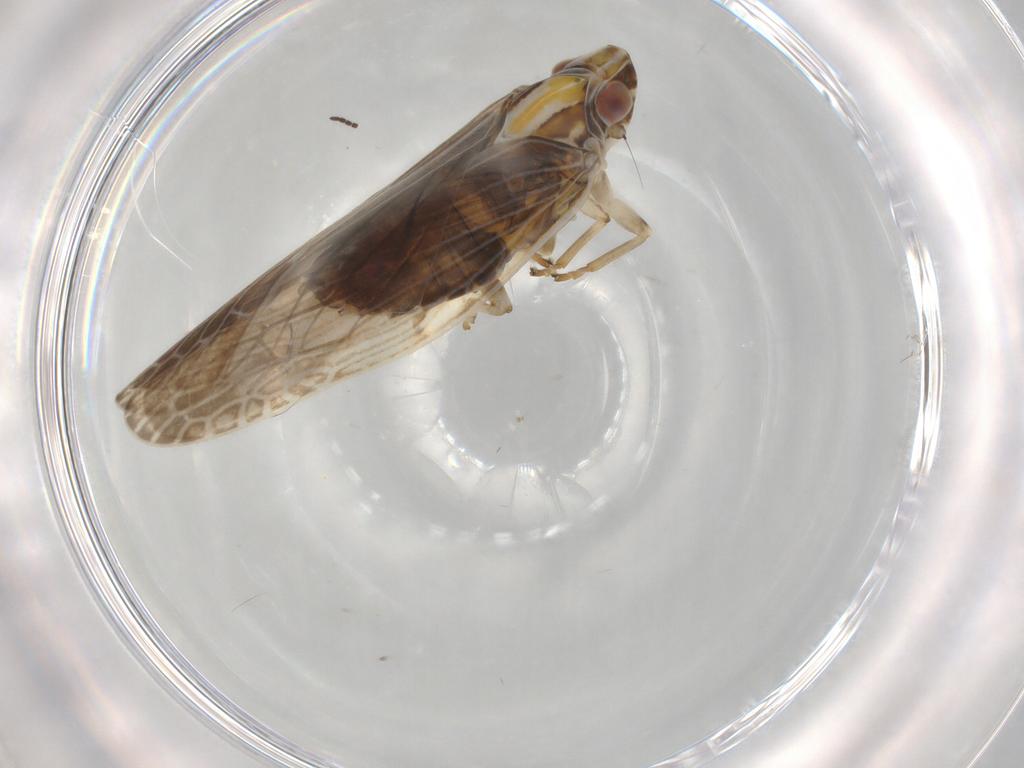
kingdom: Animalia
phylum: Arthropoda
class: Insecta
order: Hemiptera
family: Achilidae
